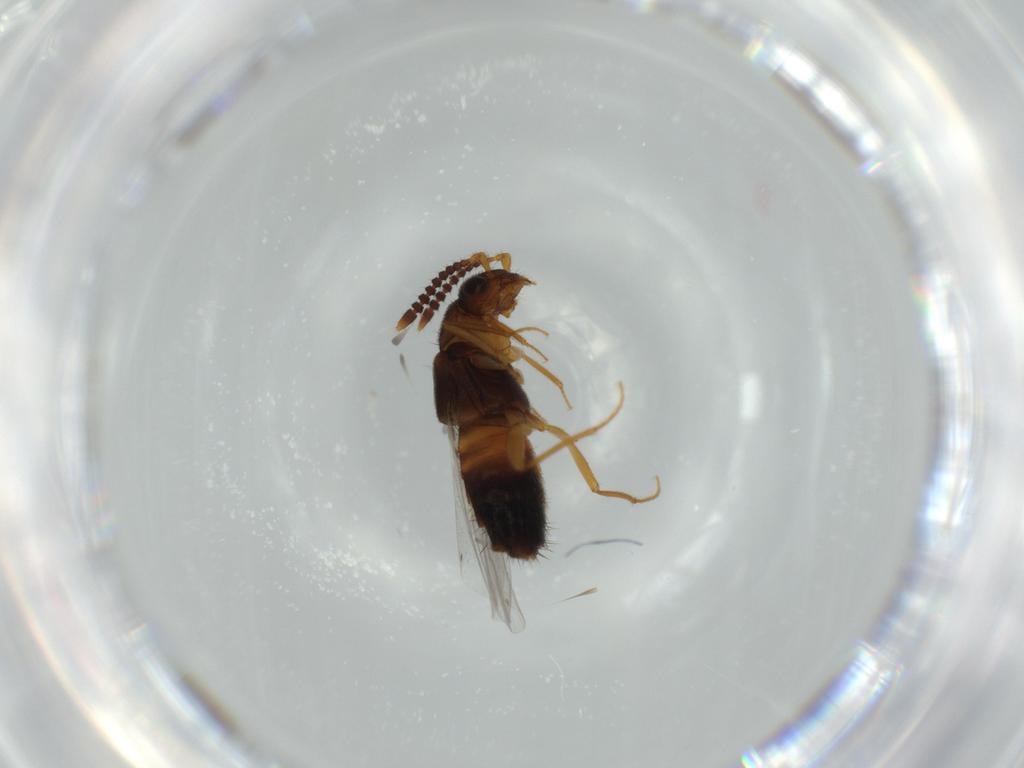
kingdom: Animalia
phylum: Arthropoda
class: Insecta
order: Coleoptera
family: Staphylinidae
